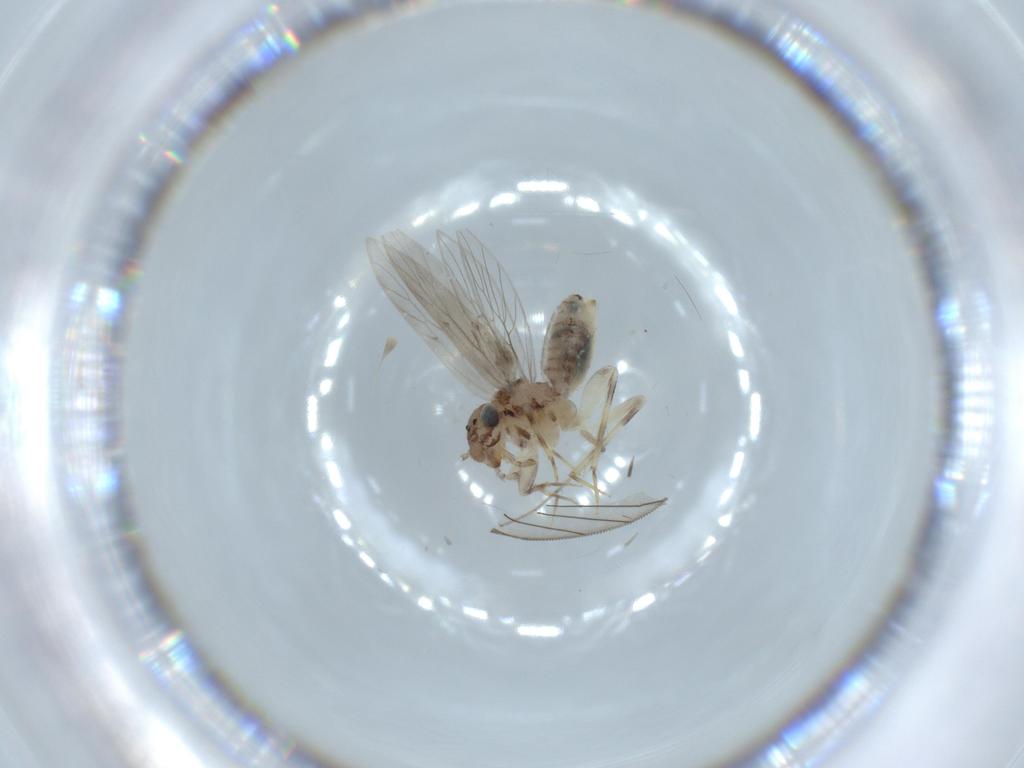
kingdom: Animalia
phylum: Arthropoda
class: Insecta
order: Psocodea
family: Lepidopsocidae
